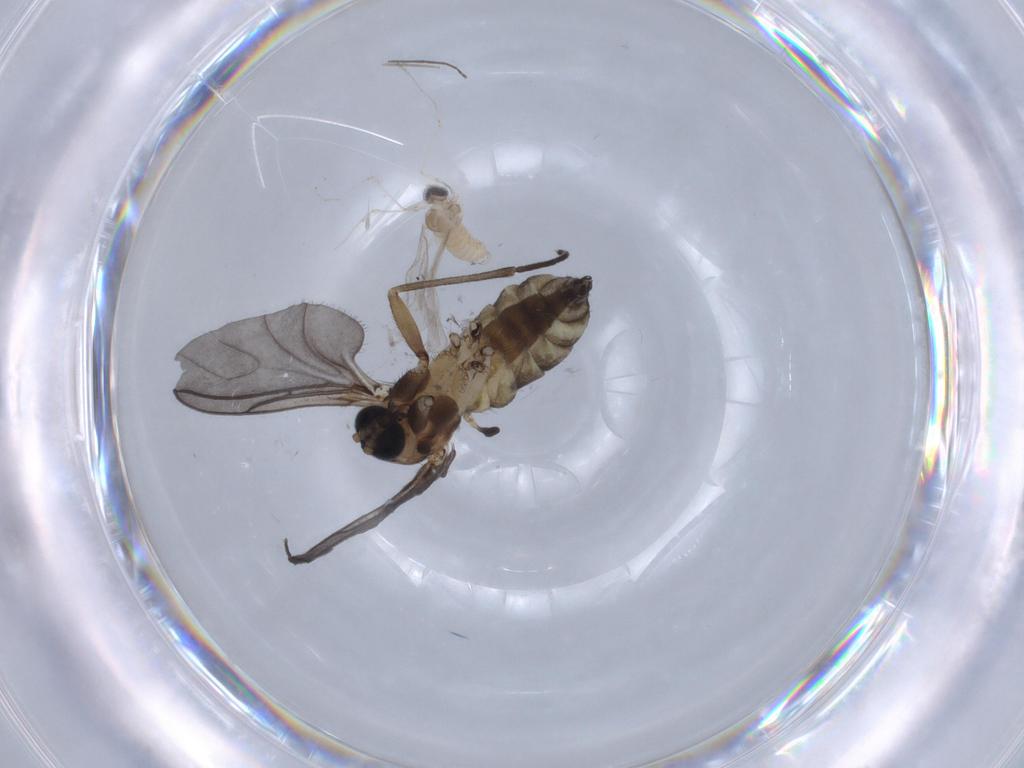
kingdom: Animalia
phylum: Arthropoda
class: Insecta
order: Diptera
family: Sciaridae
